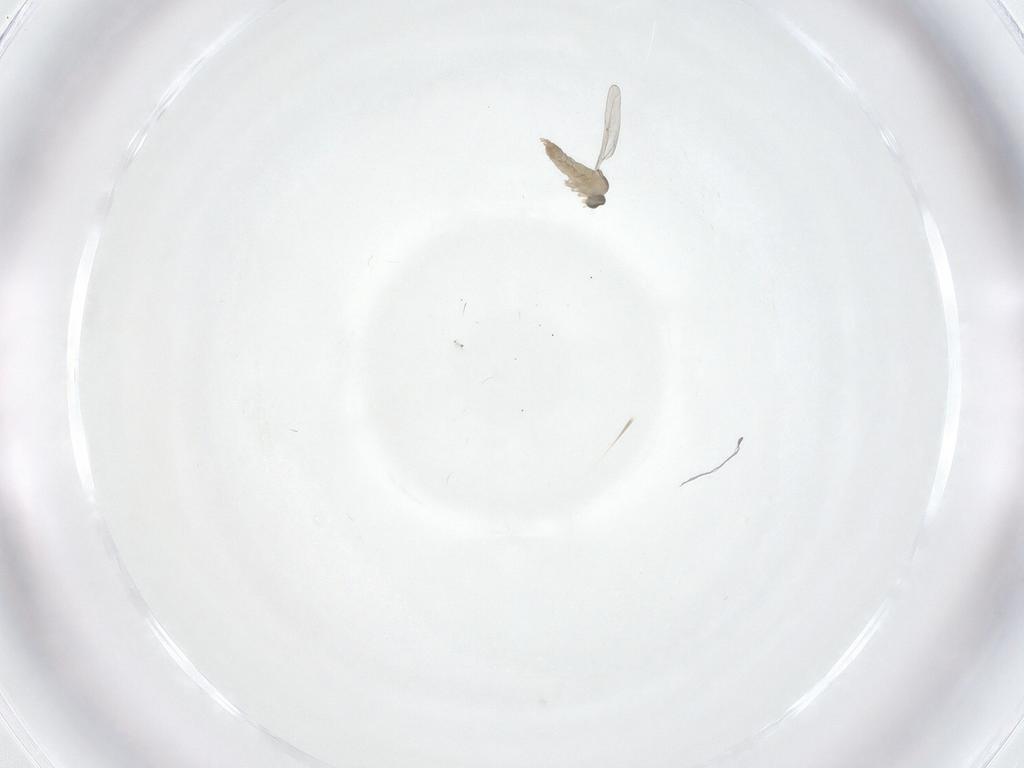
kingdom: Animalia
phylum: Arthropoda
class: Insecta
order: Diptera
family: Cecidomyiidae
